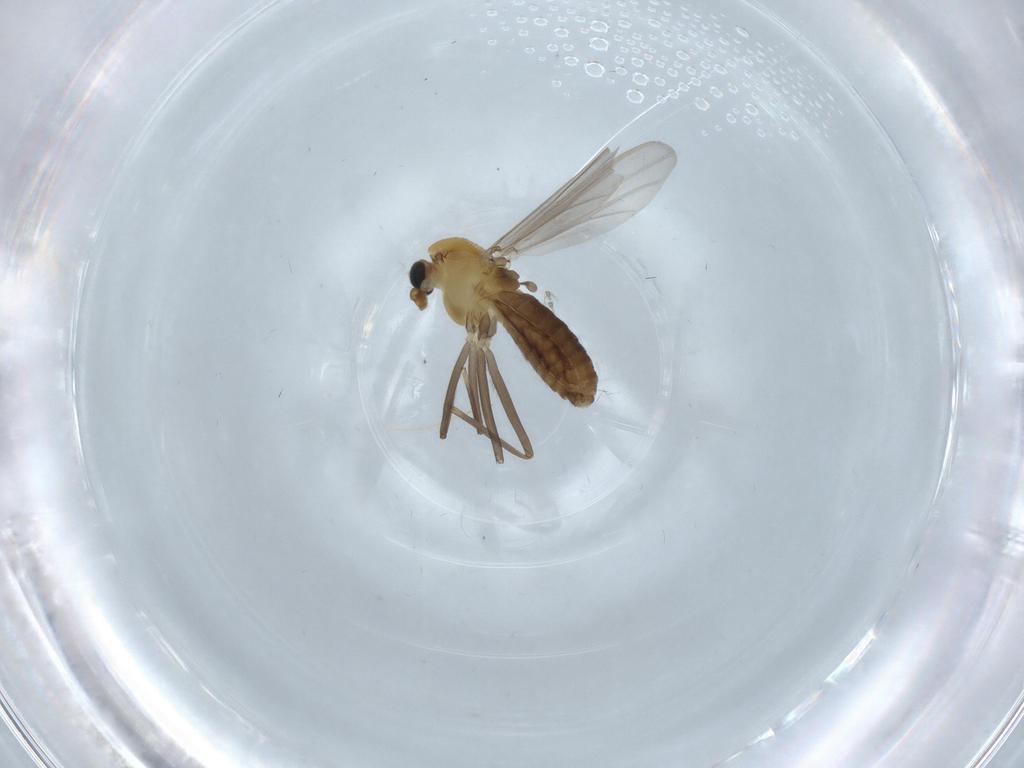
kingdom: Animalia
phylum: Arthropoda
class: Insecta
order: Diptera
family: Chironomidae
